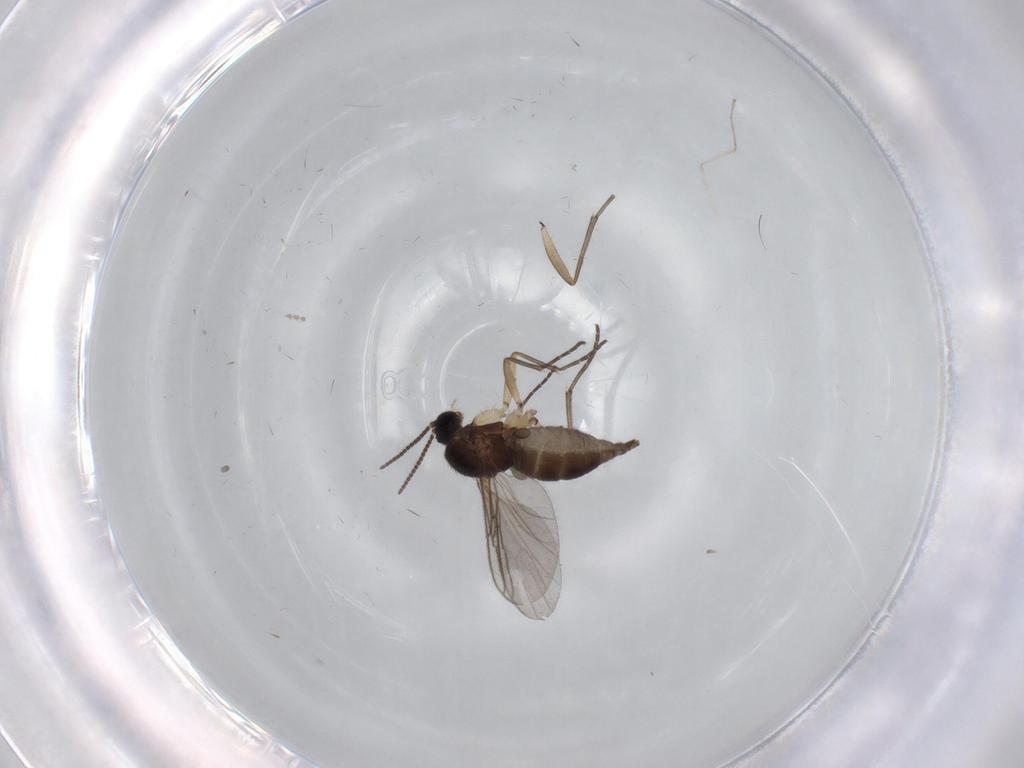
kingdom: Animalia
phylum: Arthropoda
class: Insecta
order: Diptera
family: Sciaridae
